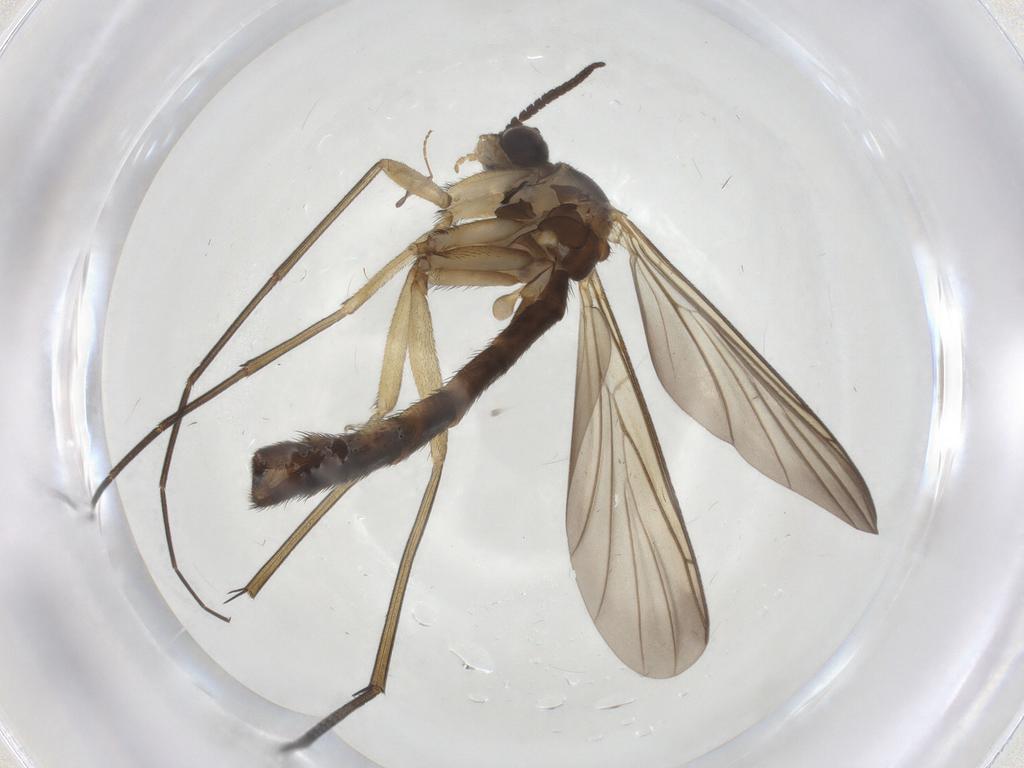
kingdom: Animalia
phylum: Arthropoda
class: Insecta
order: Diptera
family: Keroplatidae
